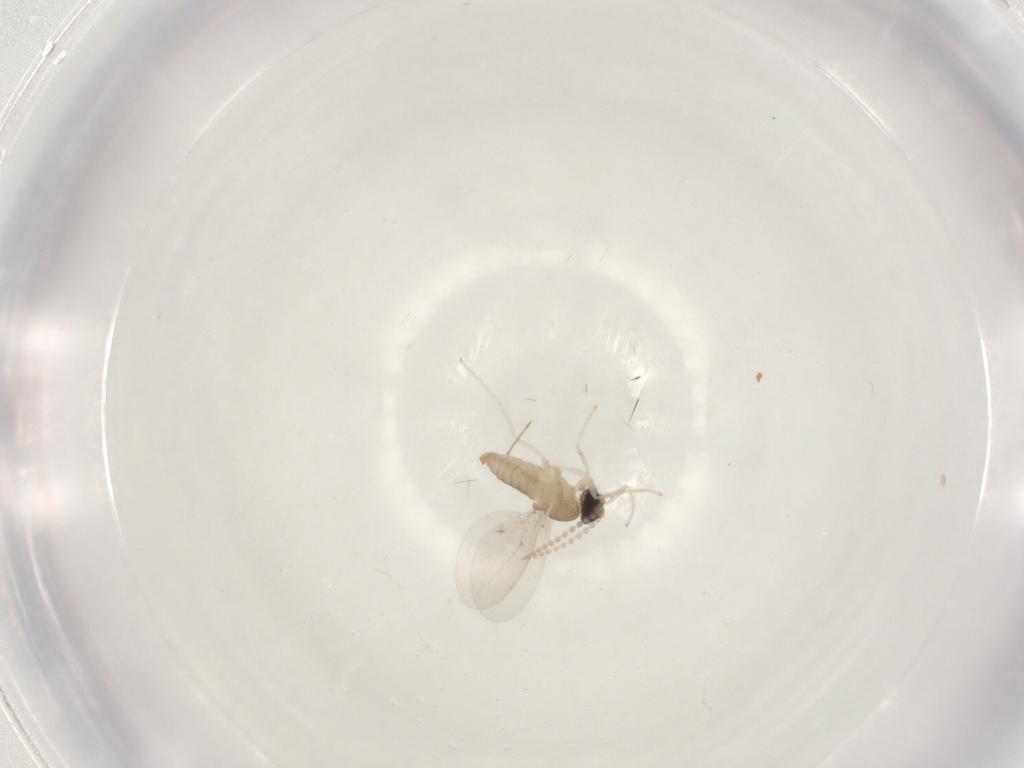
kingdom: Animalia
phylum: Arthropoda
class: Insecta
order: Diptera
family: Cecidomyiidae
